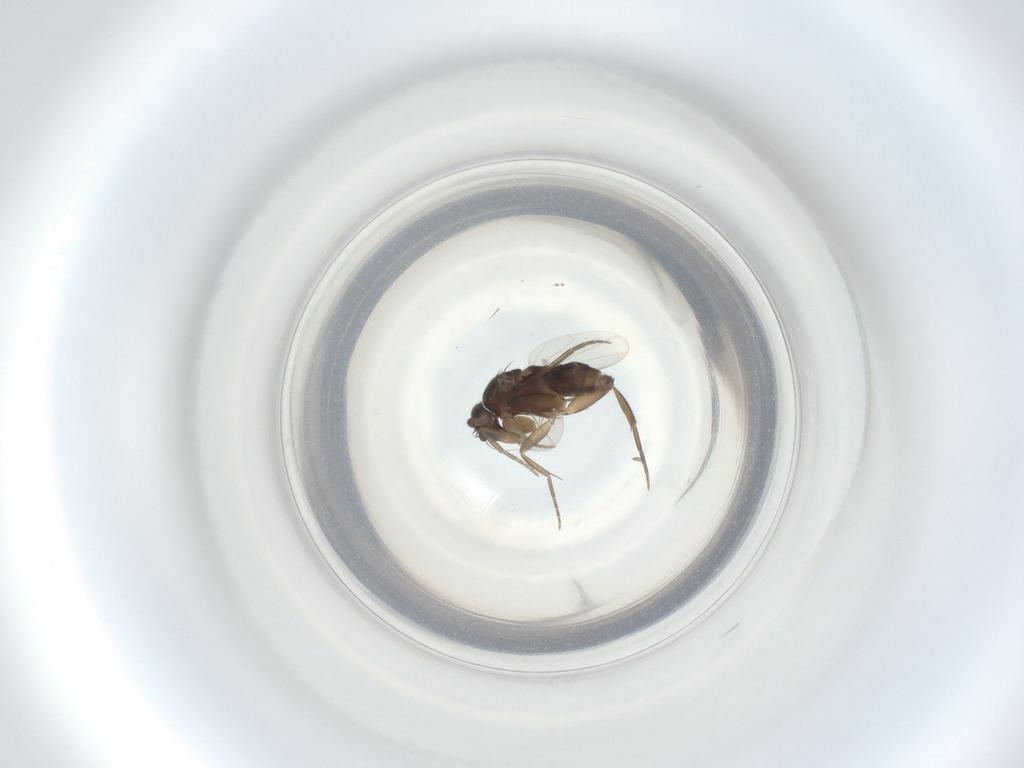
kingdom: Animalia
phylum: Arthropoda
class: Insecta
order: Diptera
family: Phoridae
